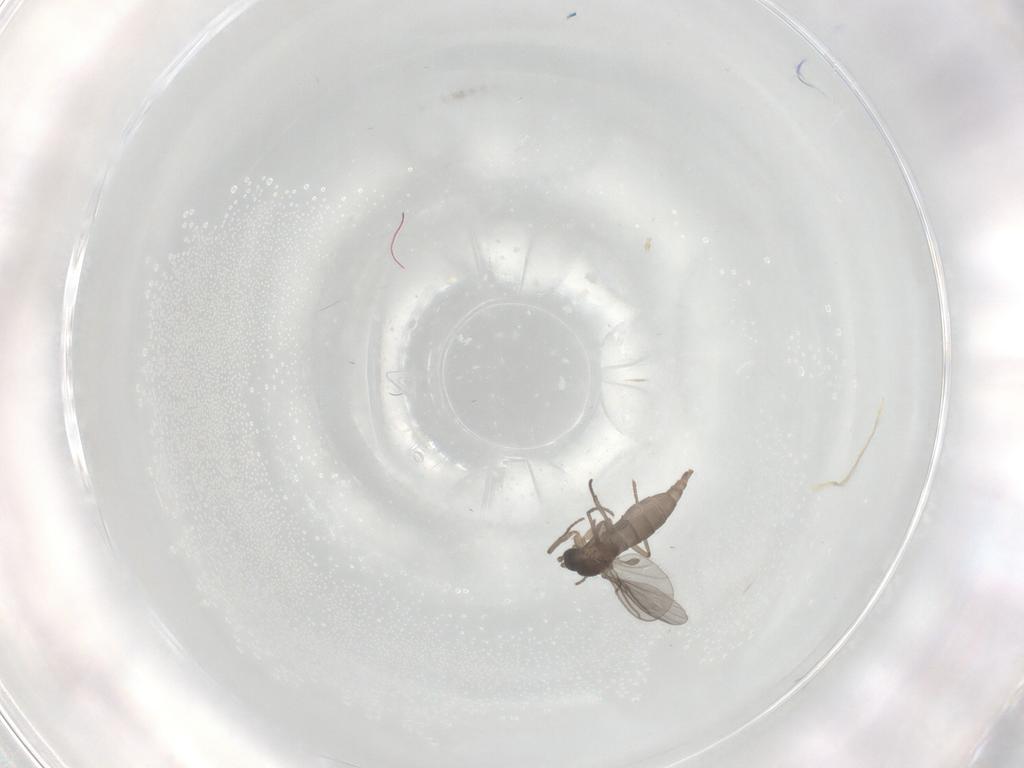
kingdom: Animalia
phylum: Arthropoda
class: Insecta
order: Diptera
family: Sciaridae
